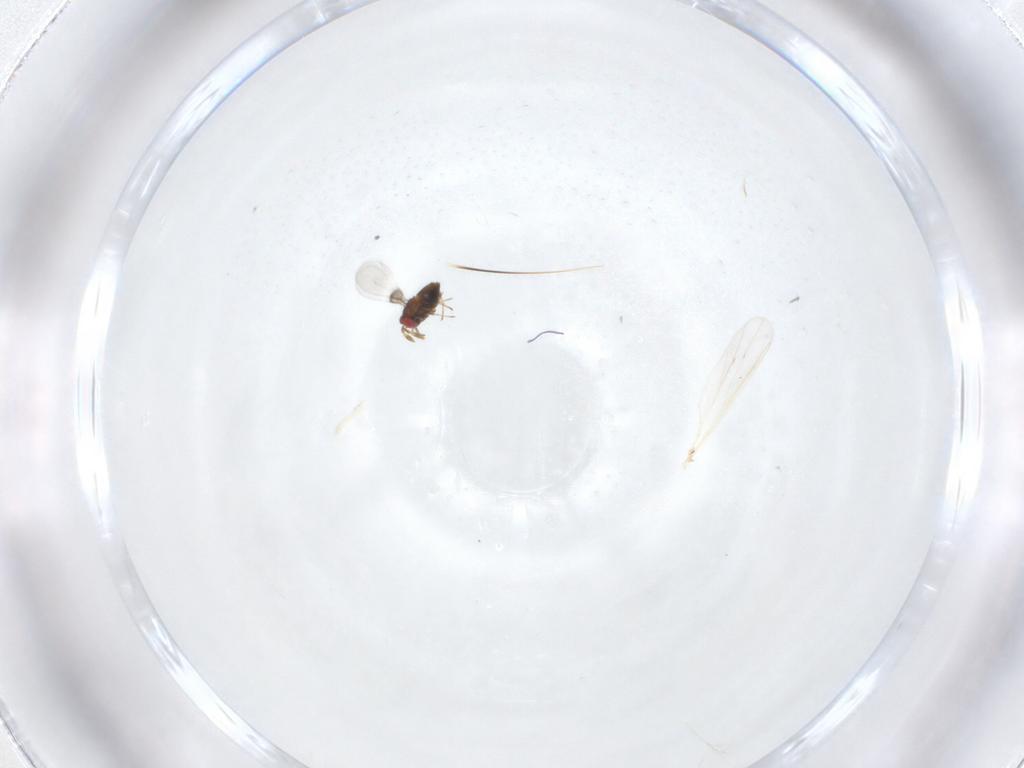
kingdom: Animalia
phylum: Arthropoda
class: Insecta
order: Hymenoptera
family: Trichogrammatidae
